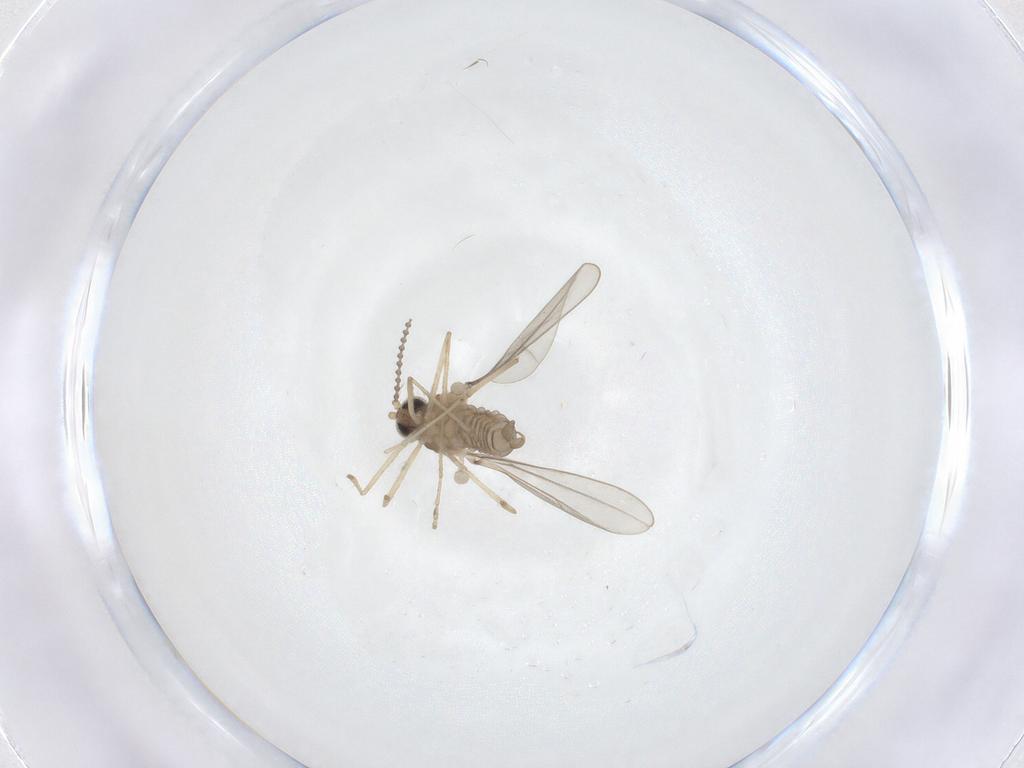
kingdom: Animalia
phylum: Arthropoda
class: Insecta
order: Diptera
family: Cecidomyiidae
